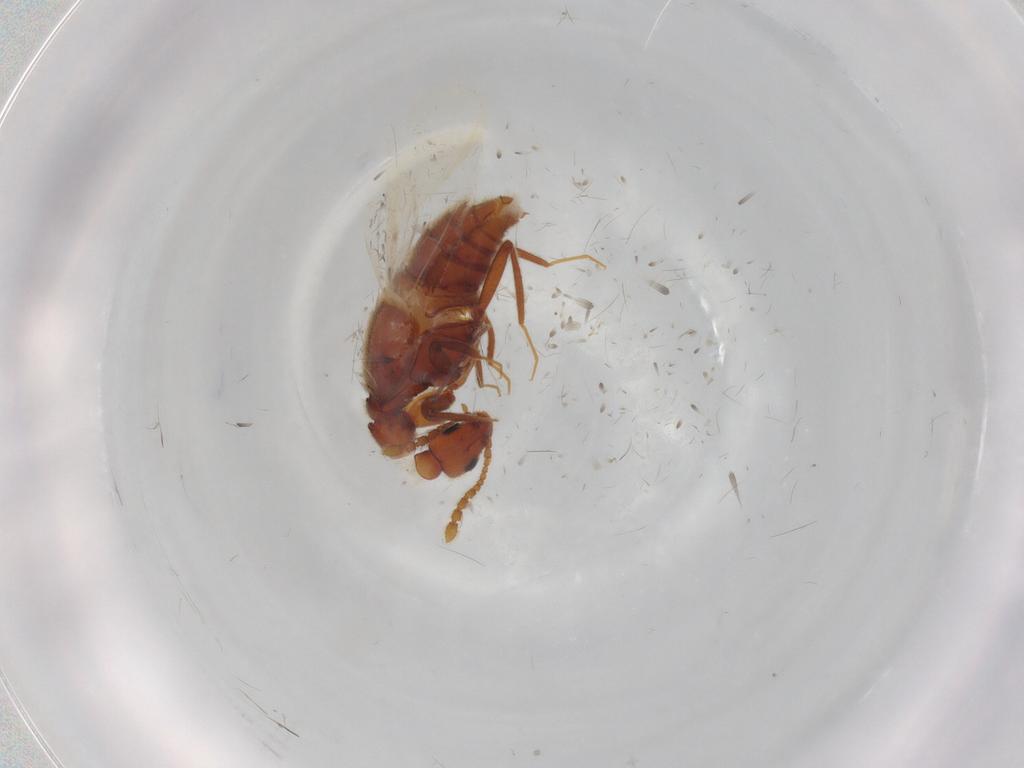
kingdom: Animalia
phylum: Arthropoda
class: Insecta
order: Coleoptera
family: Staphylinidae
